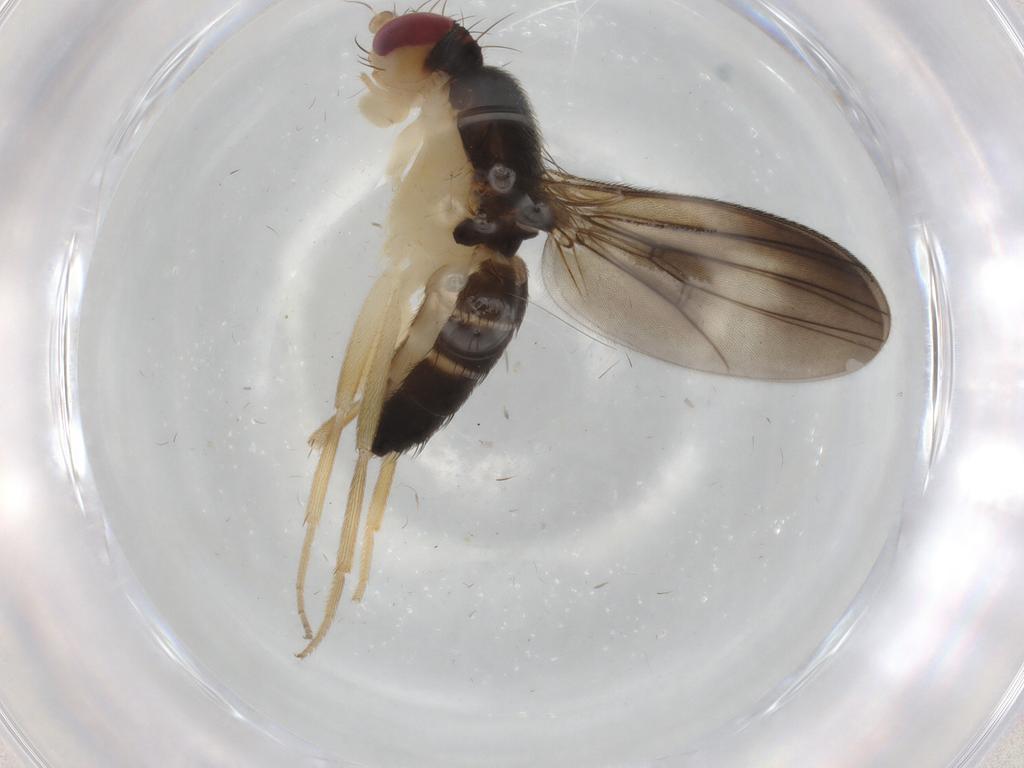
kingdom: Animalia
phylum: Arthropoda
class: Insecta
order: Diptera
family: Clusiidae
